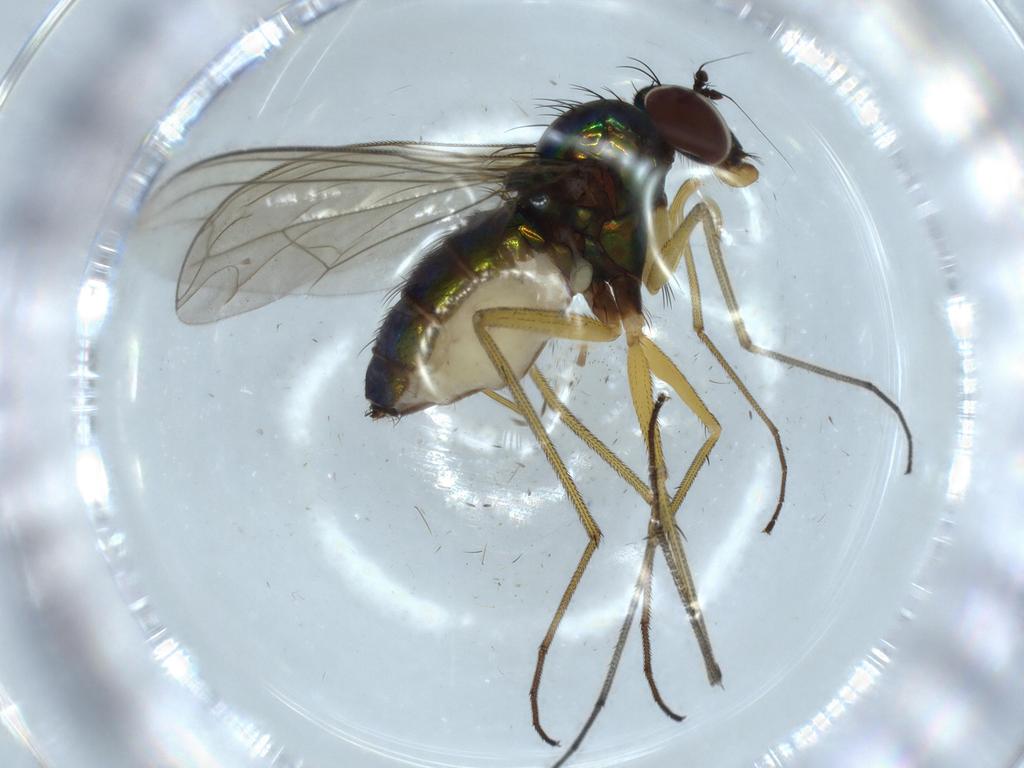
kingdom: Animalia
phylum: Arthropoda
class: Insecta
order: Diptera
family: Dolichopodidae
